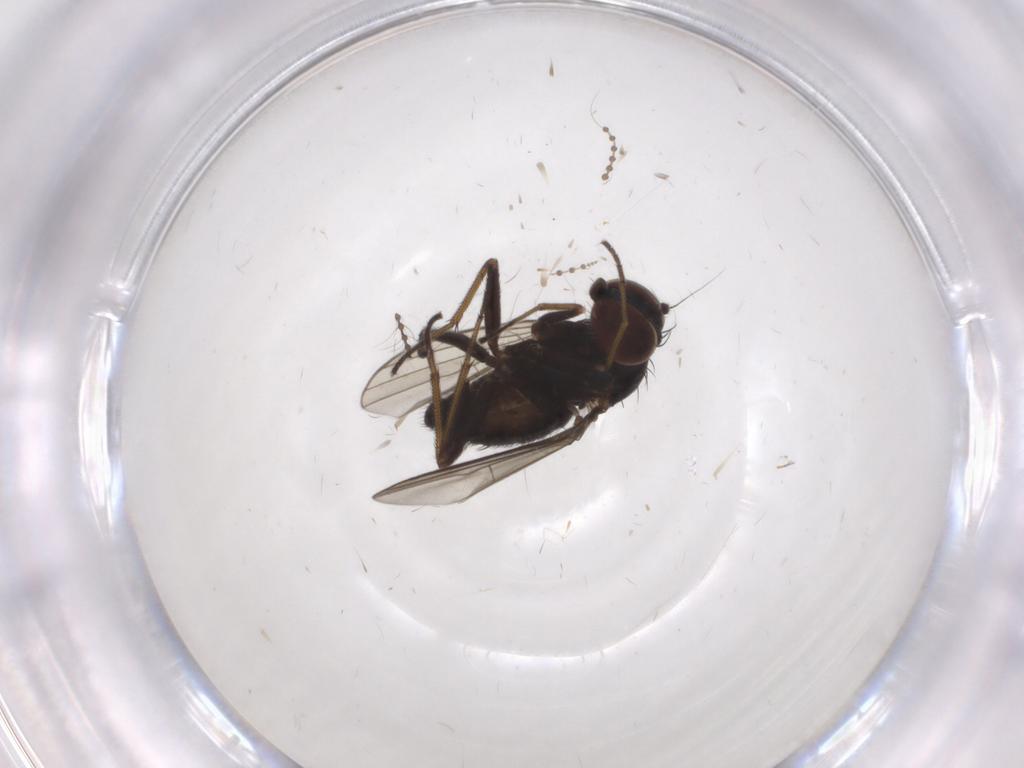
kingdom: Animalia
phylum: Arthropoda
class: Insecta
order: Diptera
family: Dolichopodidae
